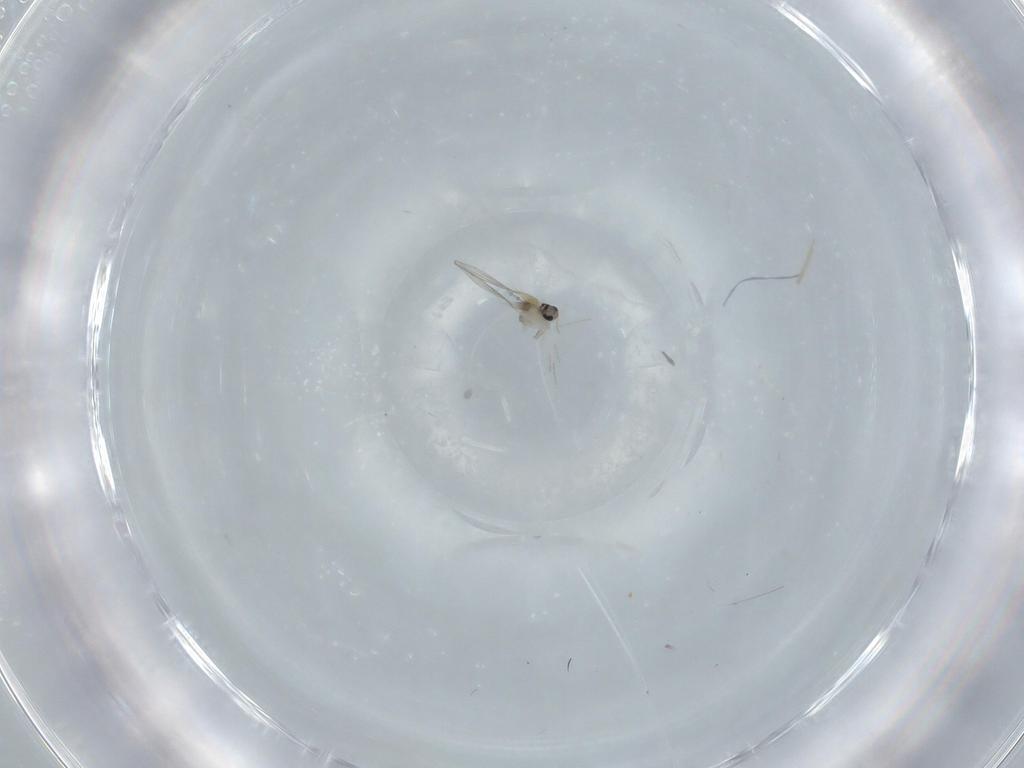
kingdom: Animalia
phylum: Arthropoda
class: Insecta
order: Diptera
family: Cecidomyiidae
